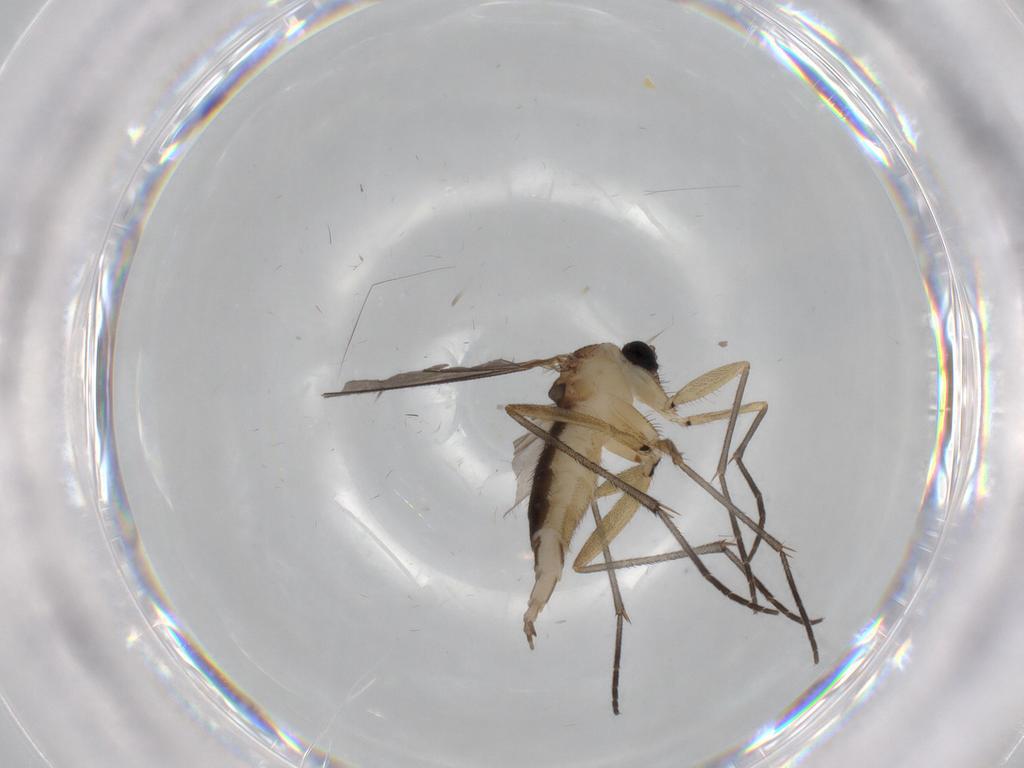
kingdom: Animalia
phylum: Arthropoda
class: Insecta
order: Diptera
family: Sciaridae
